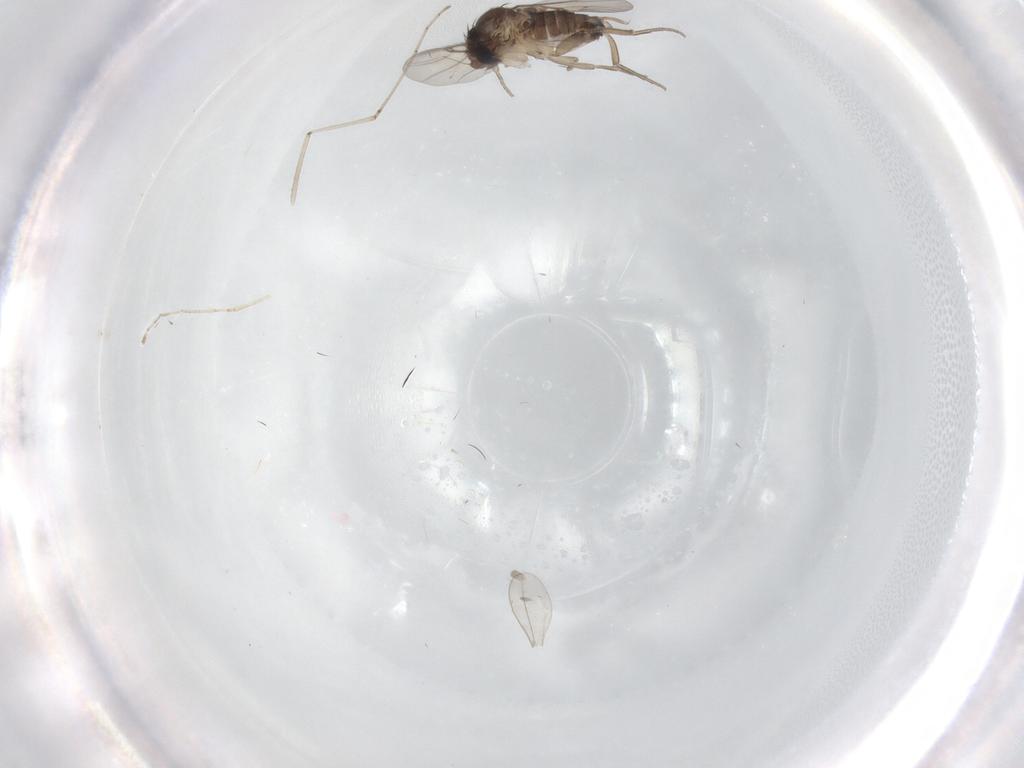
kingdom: Animalia
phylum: Arthropoda
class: Insecta
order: Diptera
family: Phoridae
